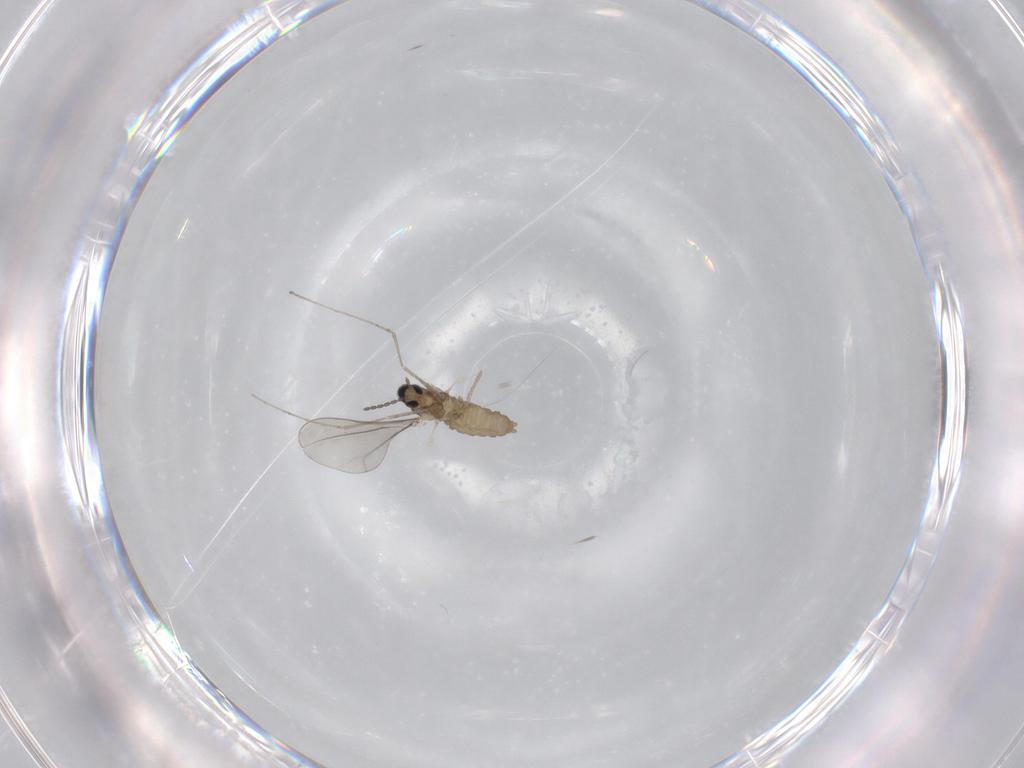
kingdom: Animalia
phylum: Arthropoda
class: Insecta
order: Diptera
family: Cecidomyiidae
